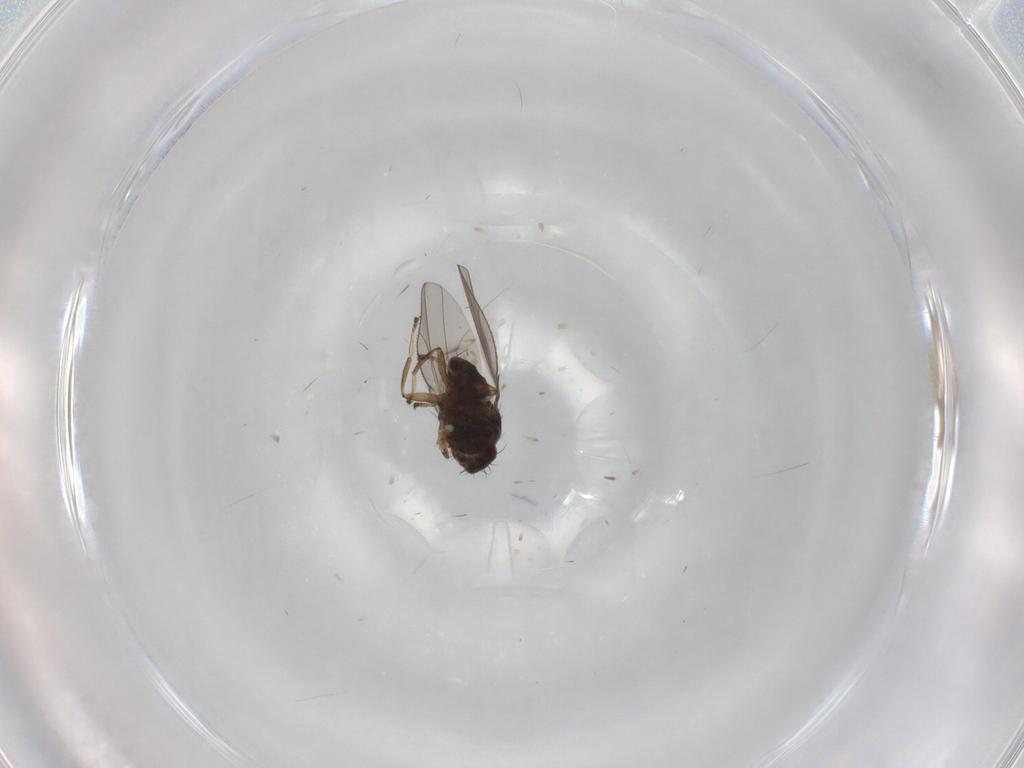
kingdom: Animalia
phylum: Arthropoda
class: Insecta
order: Diptera
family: Ephydridae
